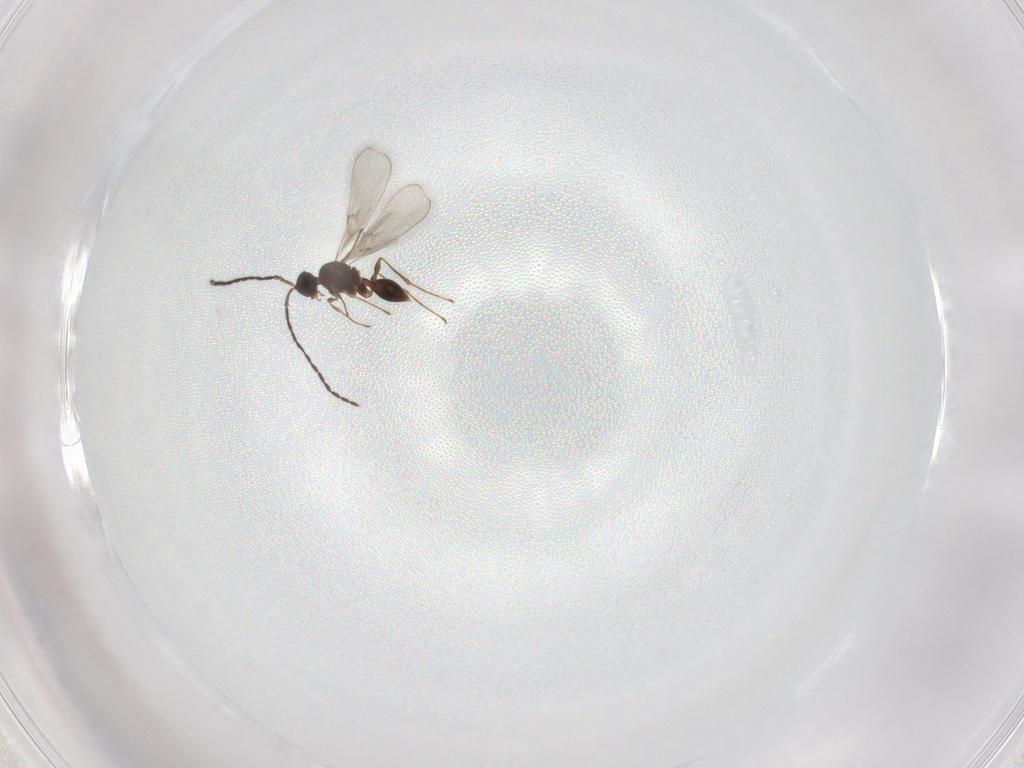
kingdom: Animalia
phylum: Arthropoda
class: Insecta
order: Hymenoptera
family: Diapriidae
